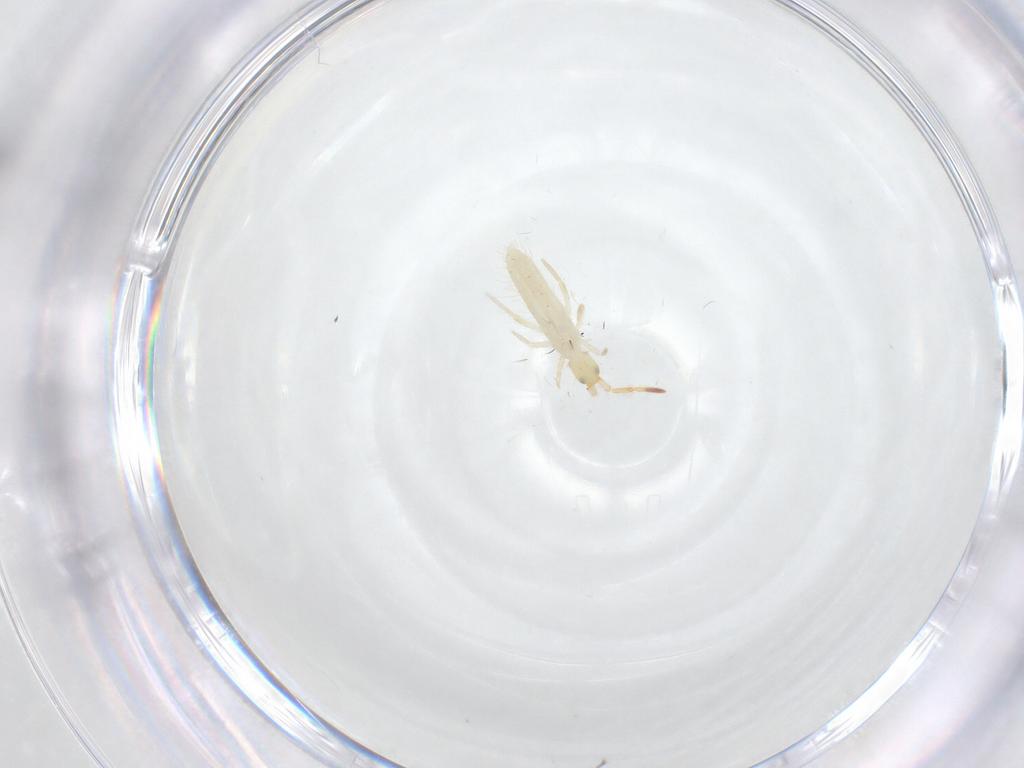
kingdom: Animalia
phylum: Arthropoda
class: Collembola
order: Entomobryomorpha
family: Entomobryidae
